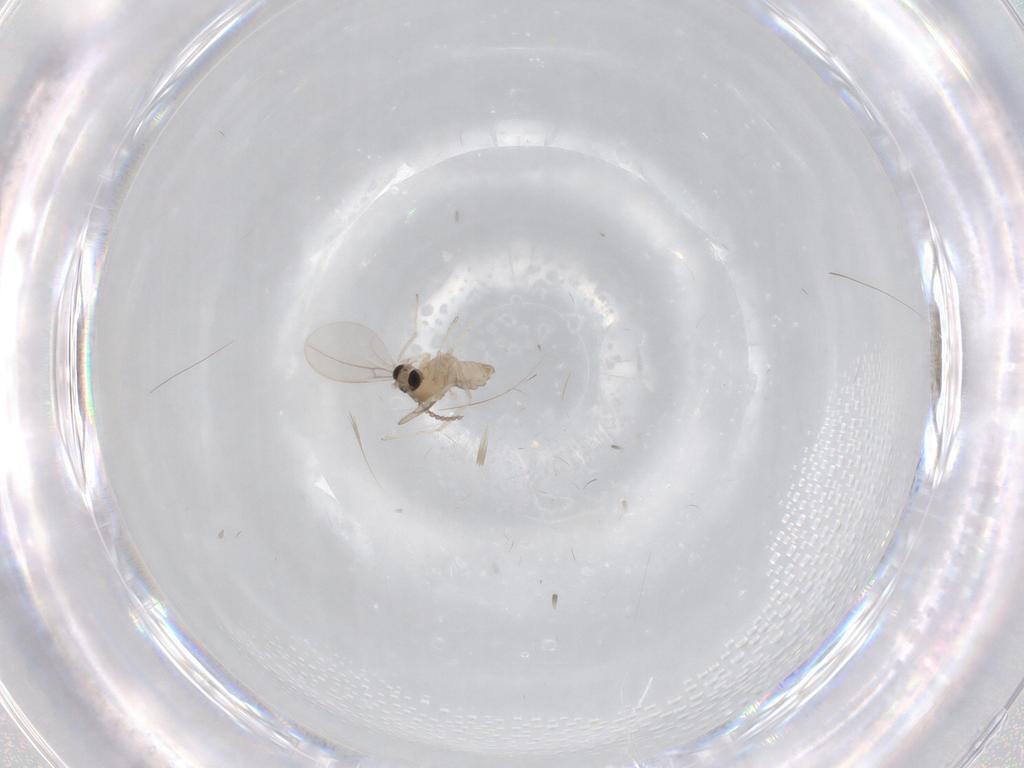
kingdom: Animalia
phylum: Arthropoda
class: Insecta
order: Diptera
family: Cecidomyiidae
